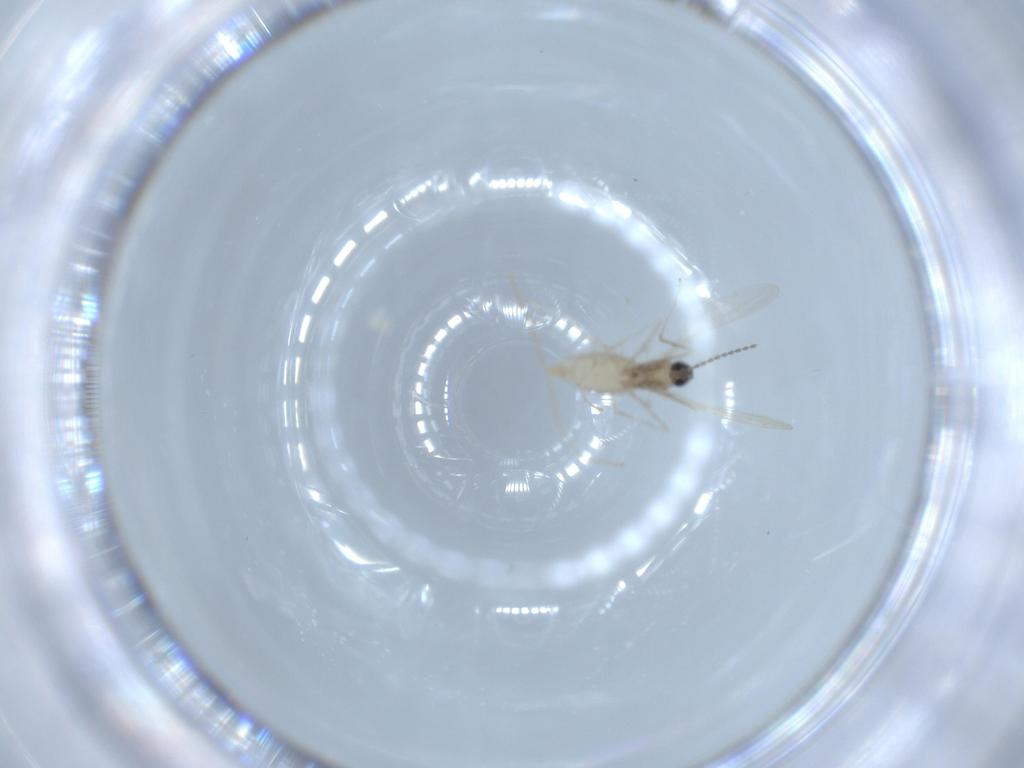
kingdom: Animalia
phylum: Arthropoda
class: Insecta
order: Diptera
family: Cecidomyiidae
